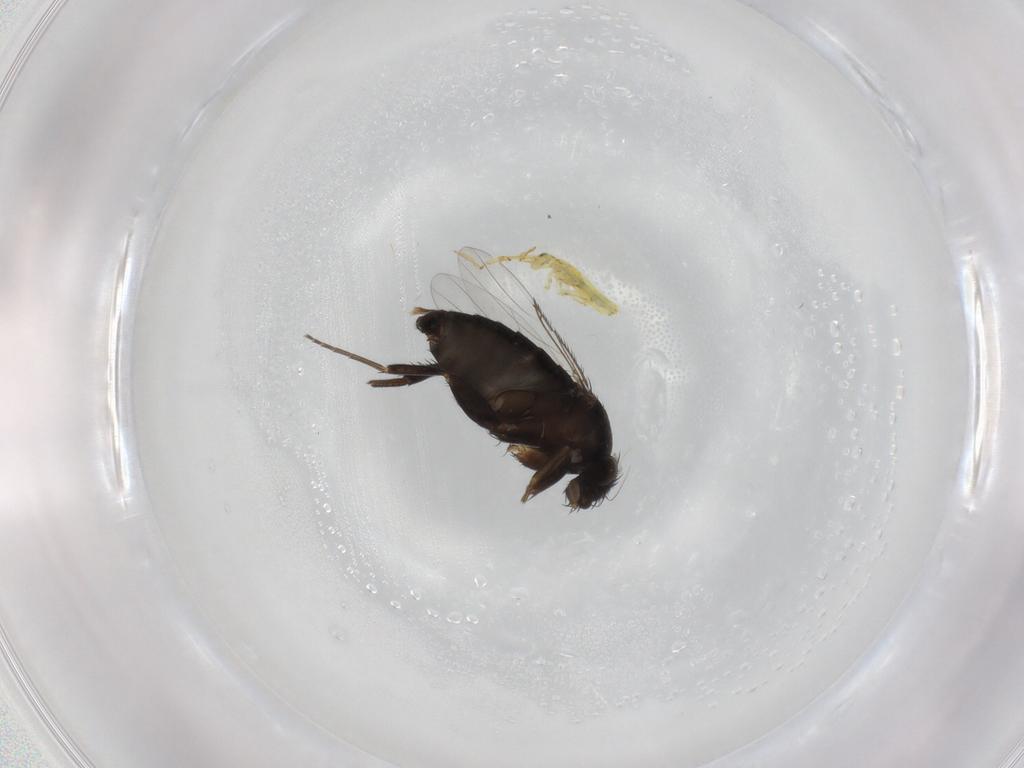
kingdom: Animalia
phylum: Arthropoda
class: Insecta
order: Diptera
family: Phoridae
